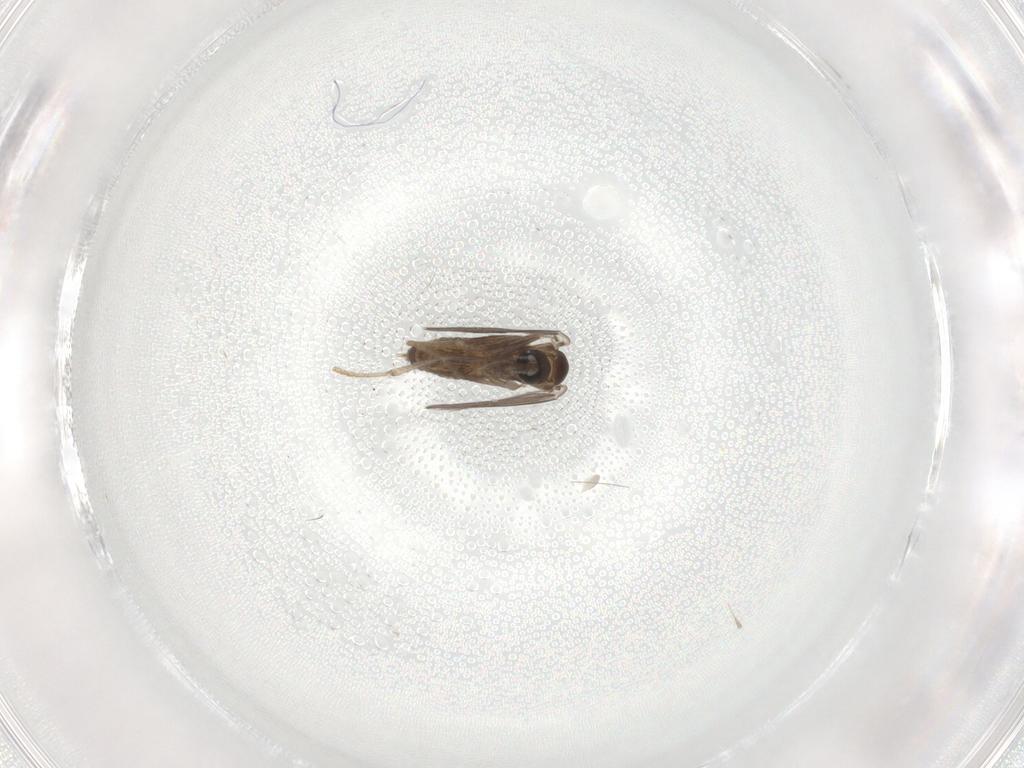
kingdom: Animalia
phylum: Arthropoda
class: Insecta
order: Diptera
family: Psychodidae
